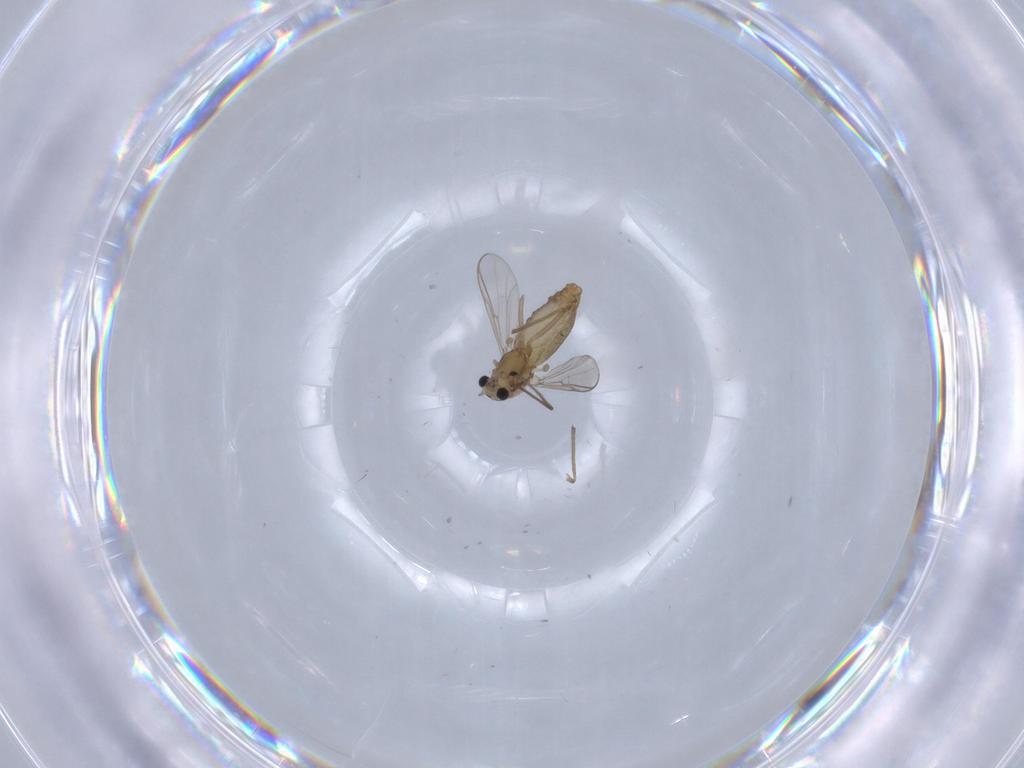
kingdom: Animalia
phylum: Arthropoda
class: Insecta
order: Diptera
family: Chironomidae
